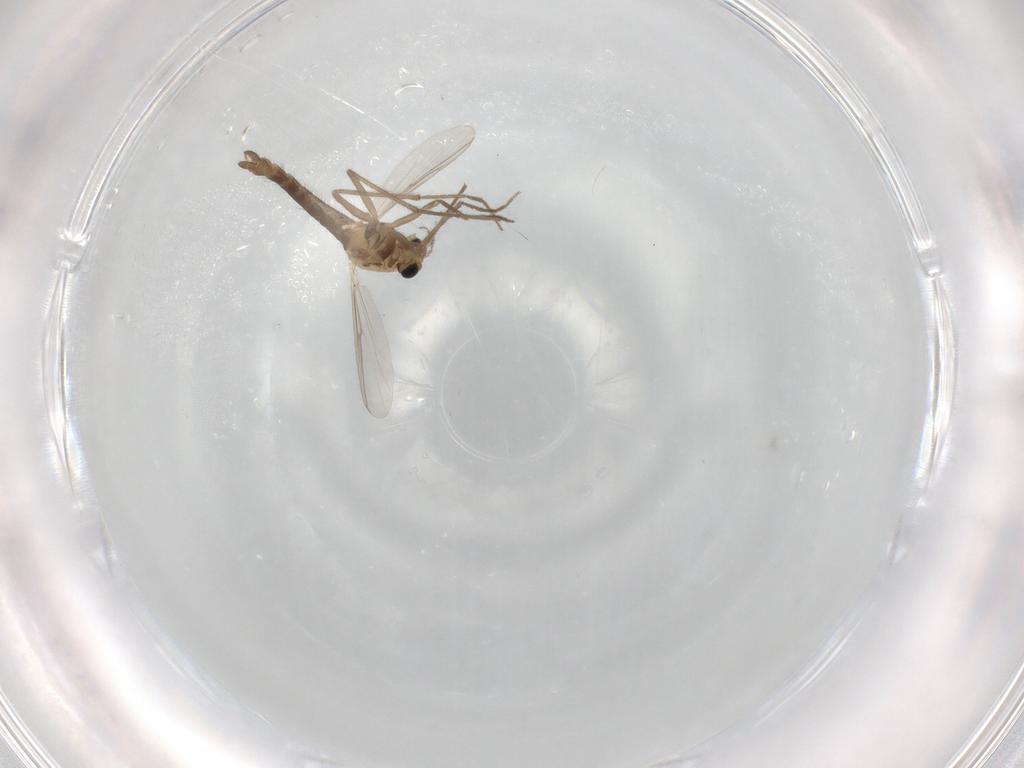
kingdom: Animalia
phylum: Arthropoda
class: Insecta
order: Diptera
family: Chironomidae
